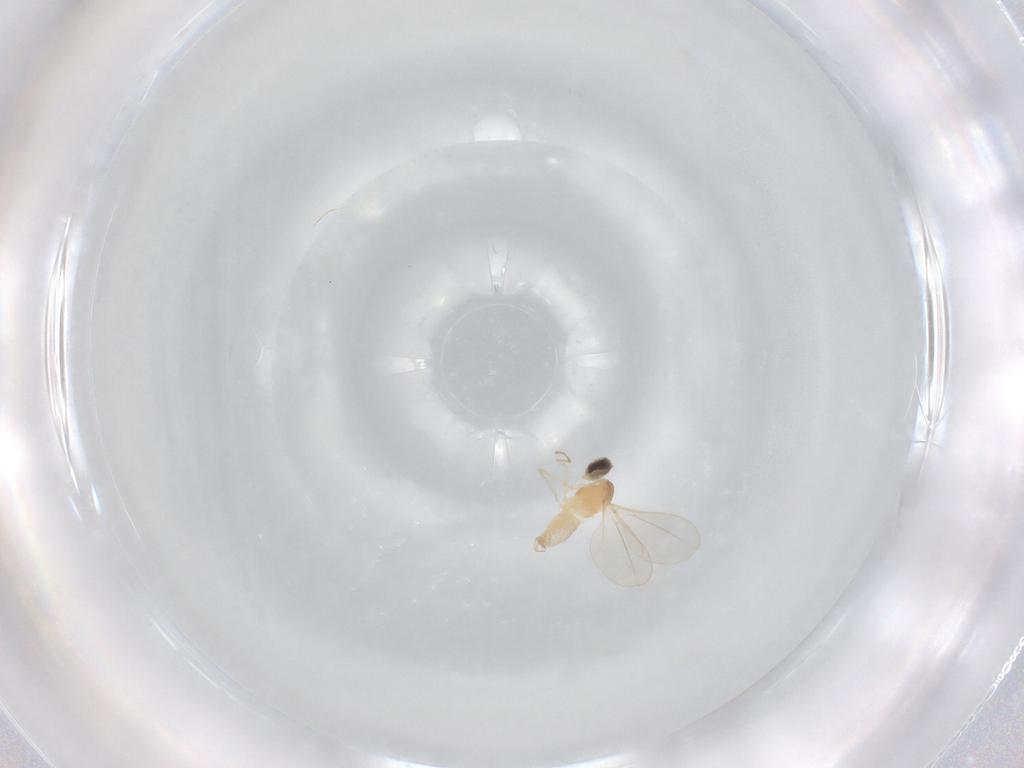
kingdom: Animalia
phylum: Arthropoda
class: Insecta
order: Diptera
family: Cecidomyiidae
